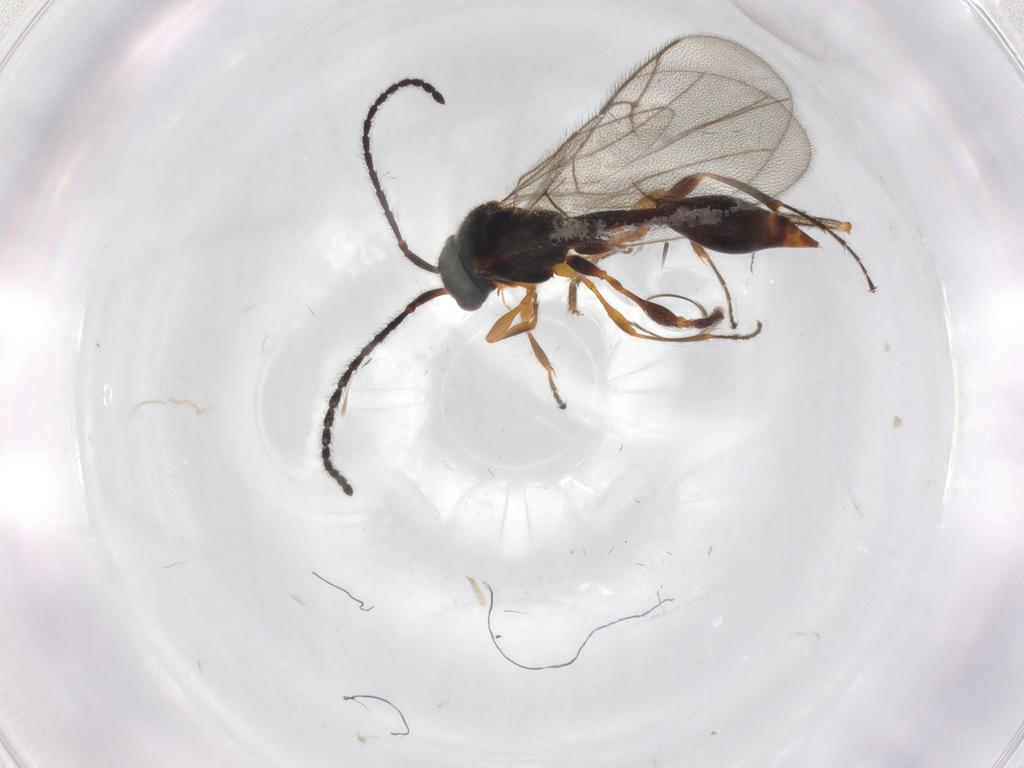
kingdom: Animalia
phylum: Arthropoda
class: Insecta
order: Hymenoptera
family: Diapriidae
